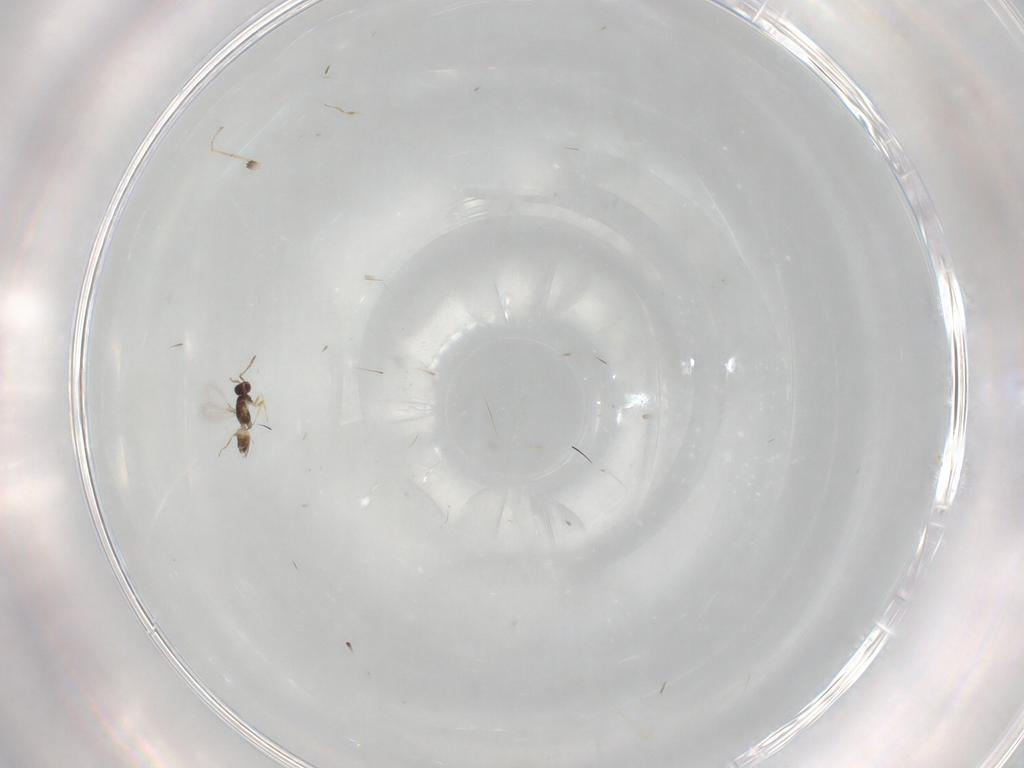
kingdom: Animalia
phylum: Arthropoda
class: Insecta
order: Hymenoptera
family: Mymaridae
